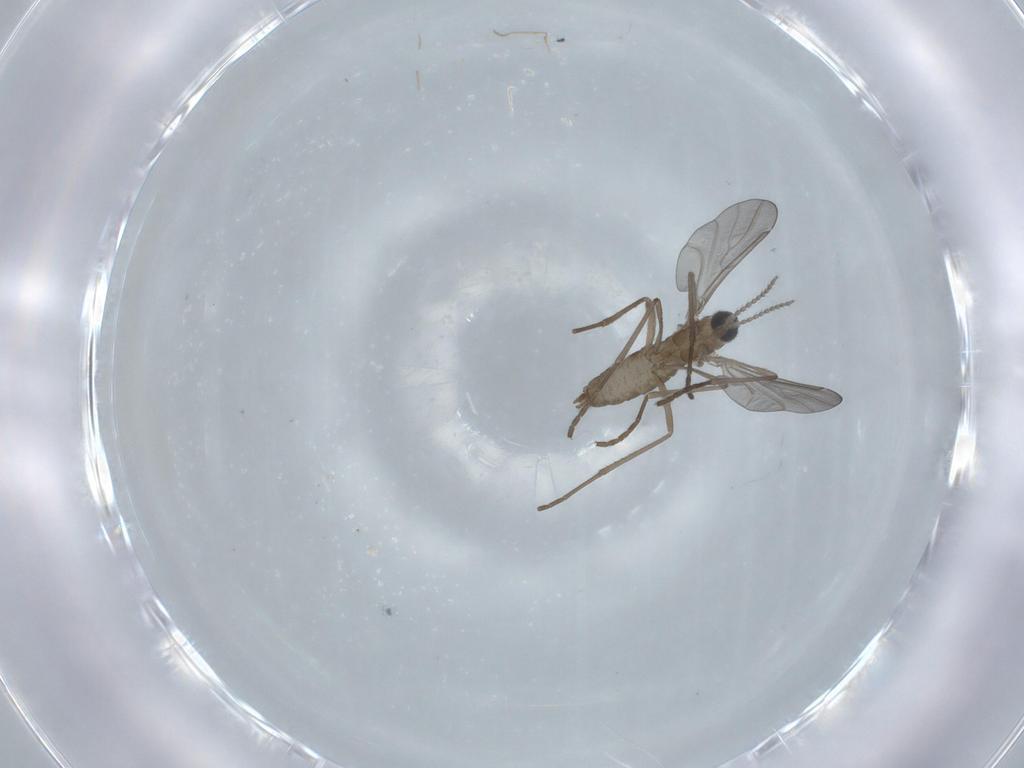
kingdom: Animalia
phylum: Arthropoda
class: Insecta
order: Diptera
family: Cecidomyiidae
